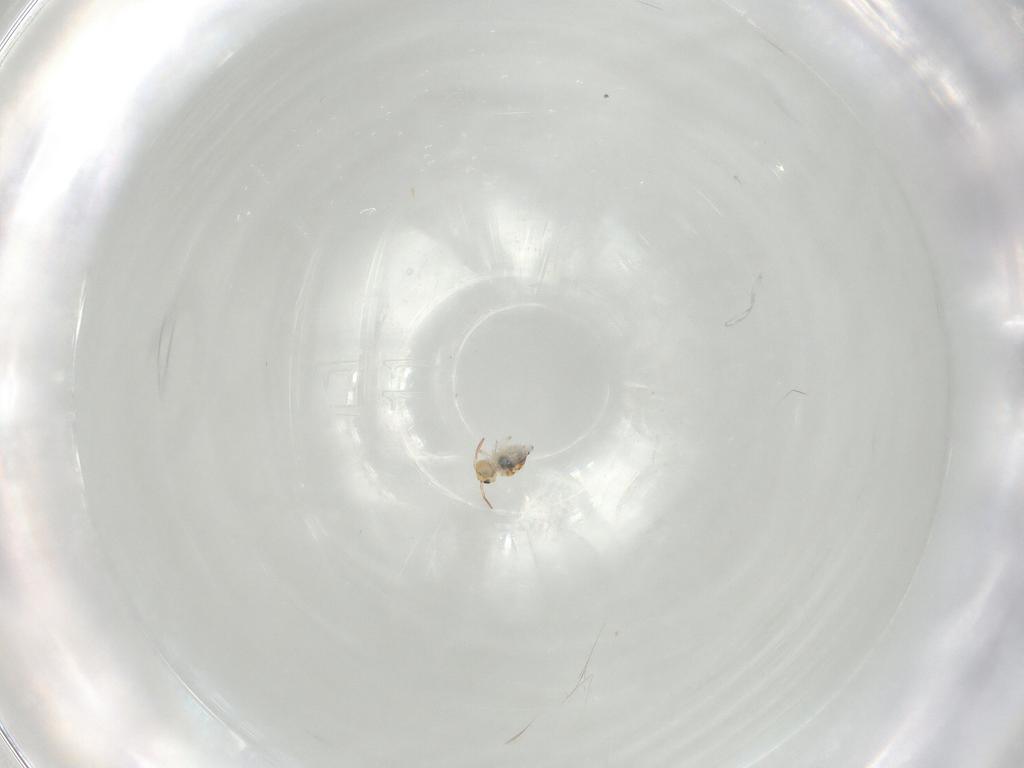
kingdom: Animalia
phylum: Arthropoda
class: Collembola
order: Symphypleona
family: Bourletiellidae
